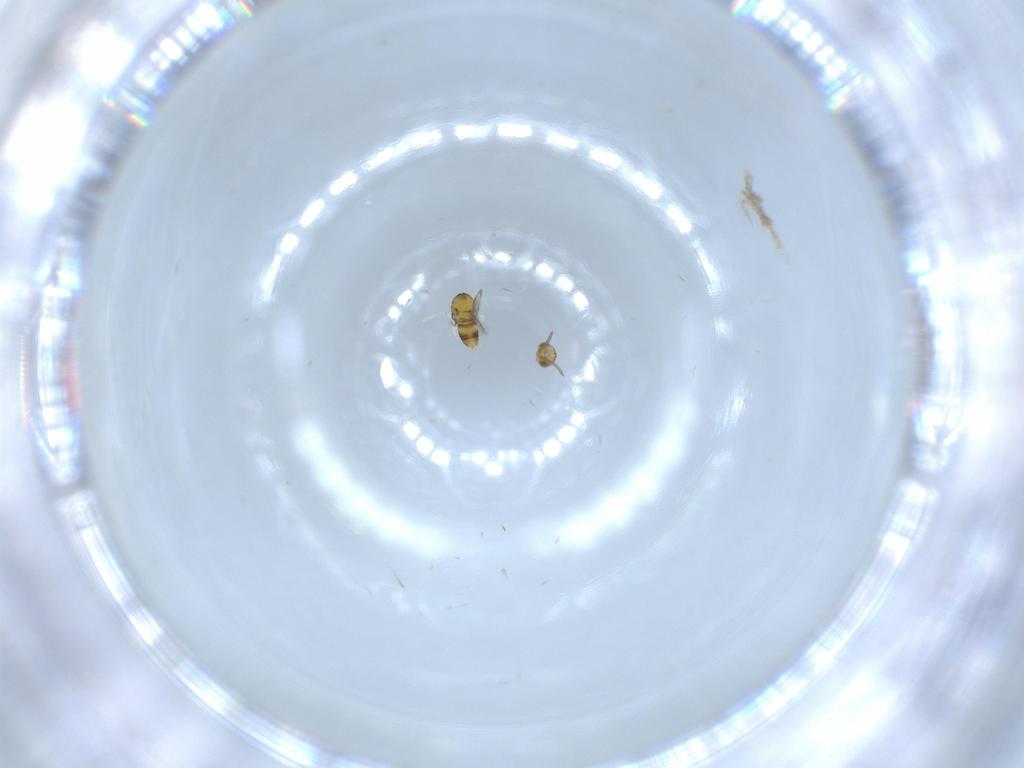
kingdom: Animalia
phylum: Arthropoda
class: Insecta
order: Hymenoptera
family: Aphelinidae
